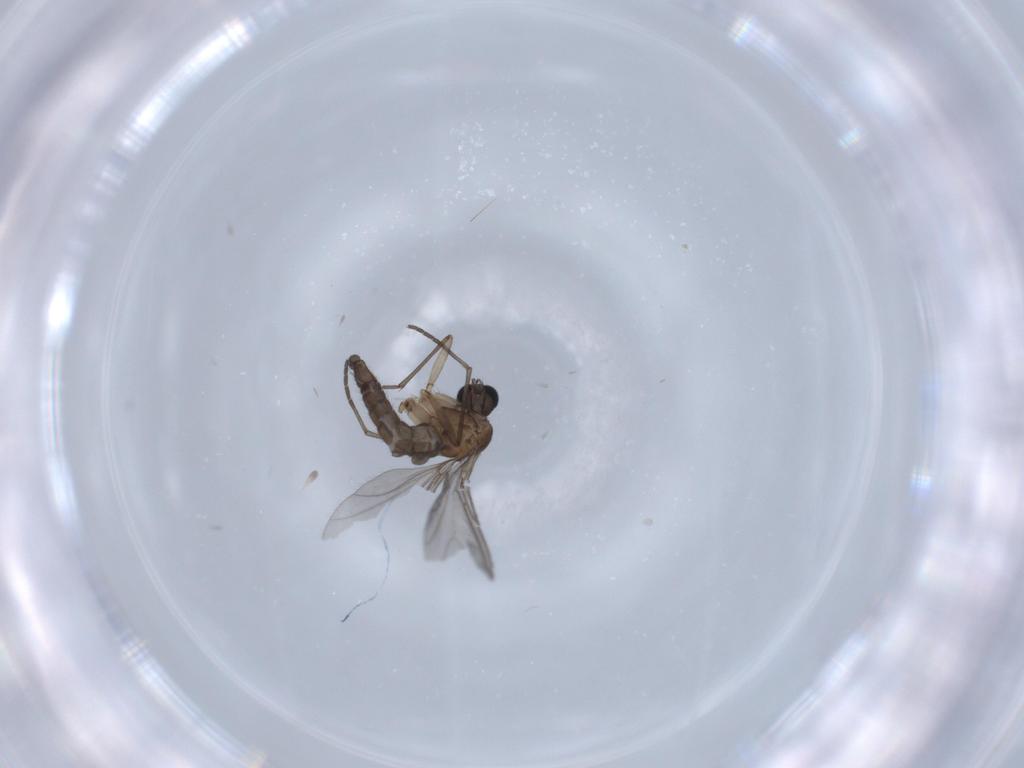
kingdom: Animalia
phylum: Arthropoda
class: Insecta
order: Diptera
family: Sciaridae
